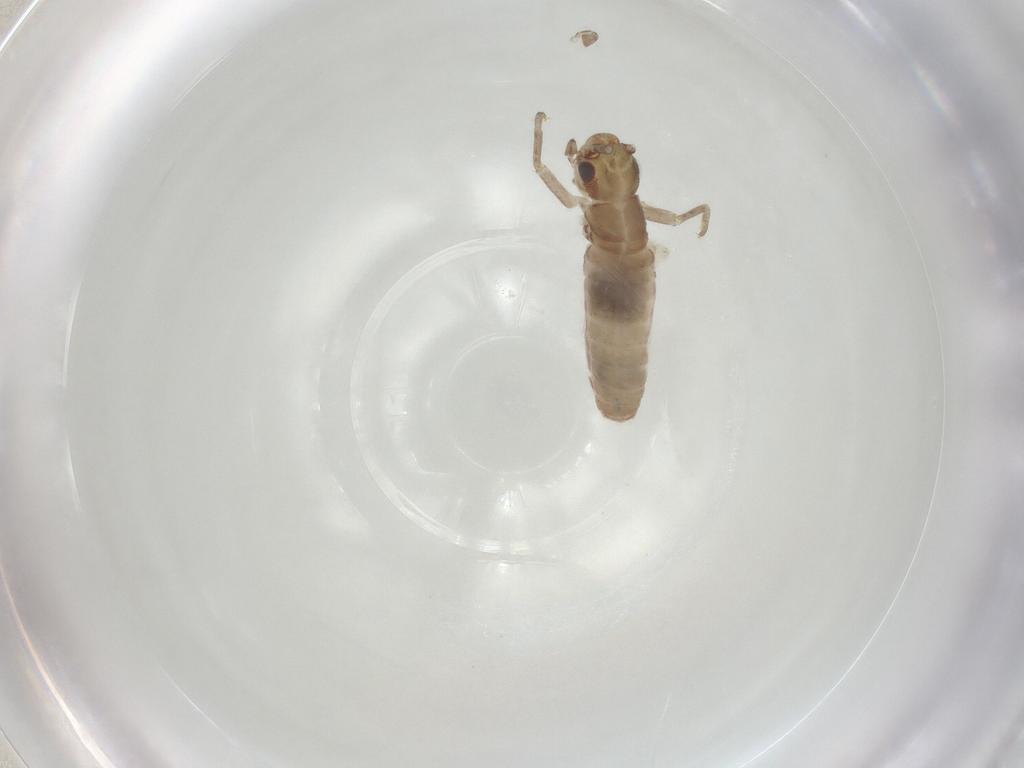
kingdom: Animalia
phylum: Arthropoda
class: Insecta
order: Orthoptera
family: Mogoplistidae
